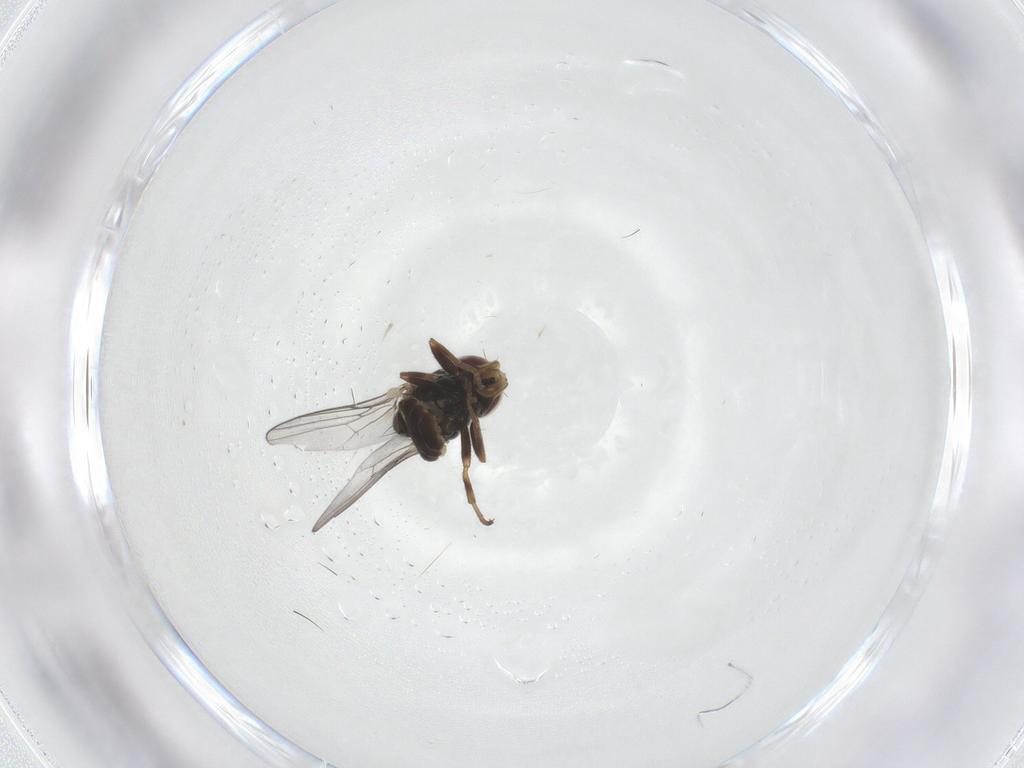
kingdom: Animalia
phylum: Arthropoda
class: Insecta
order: Diptera
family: Chloropidae
